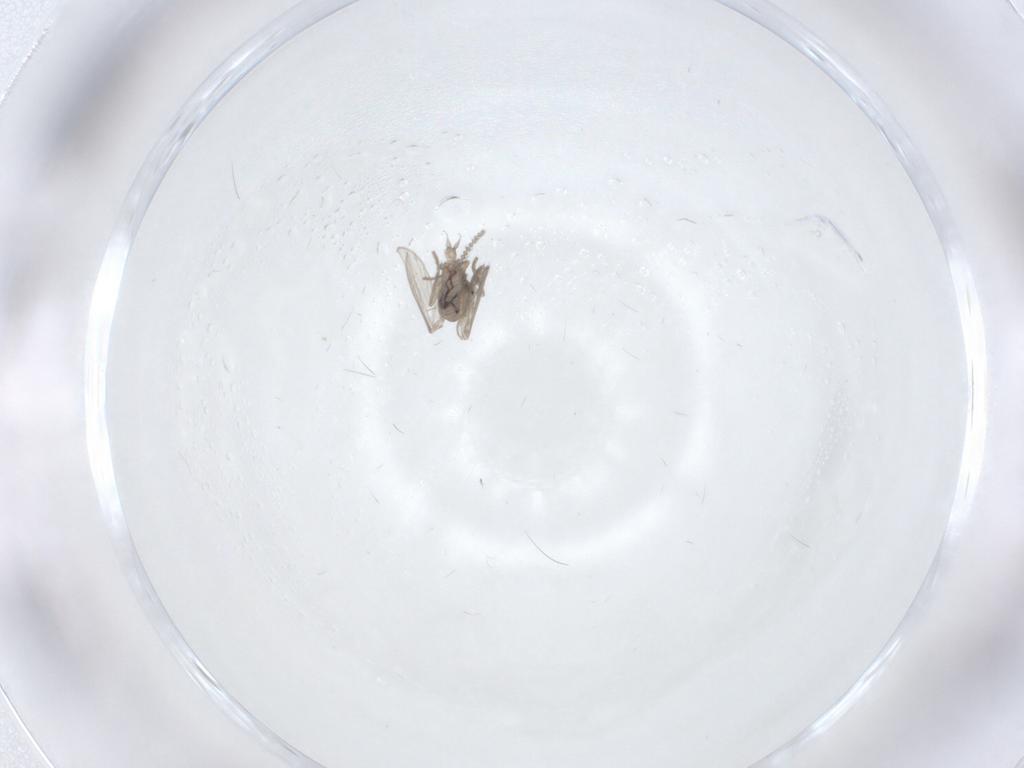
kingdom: Animalia
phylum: Arthropoda
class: Insecta
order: Diptera
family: Psychodidae
